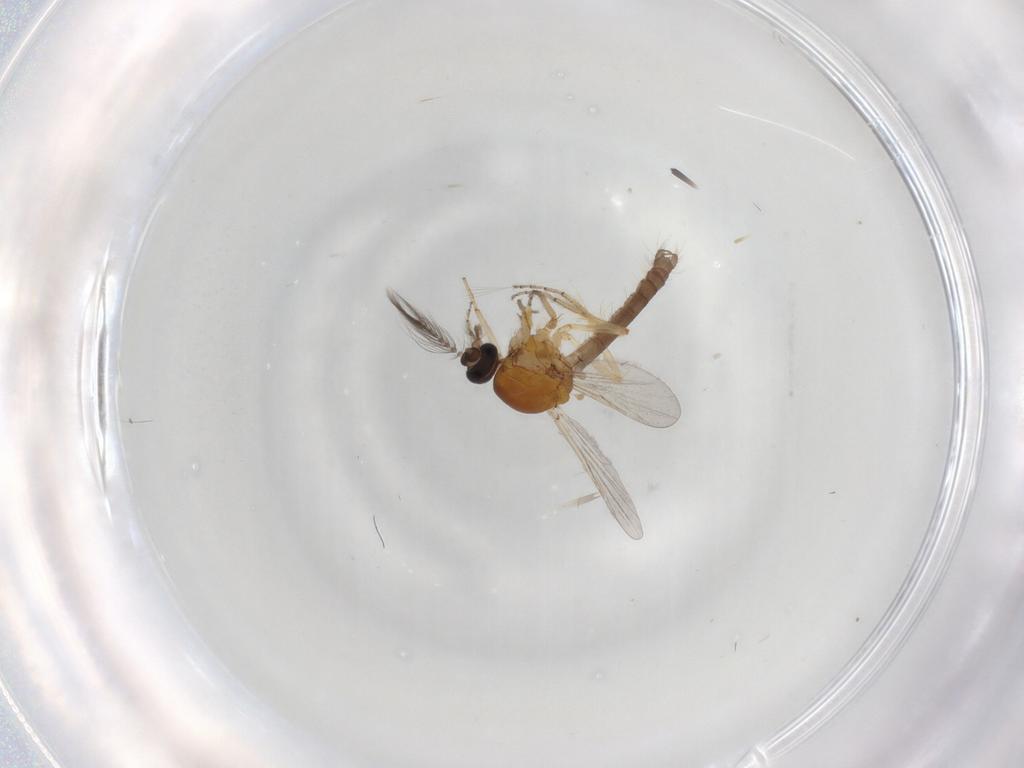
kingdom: Animalia
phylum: Arthropoda
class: Insecta
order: Diptera
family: Ceratopogonidae
